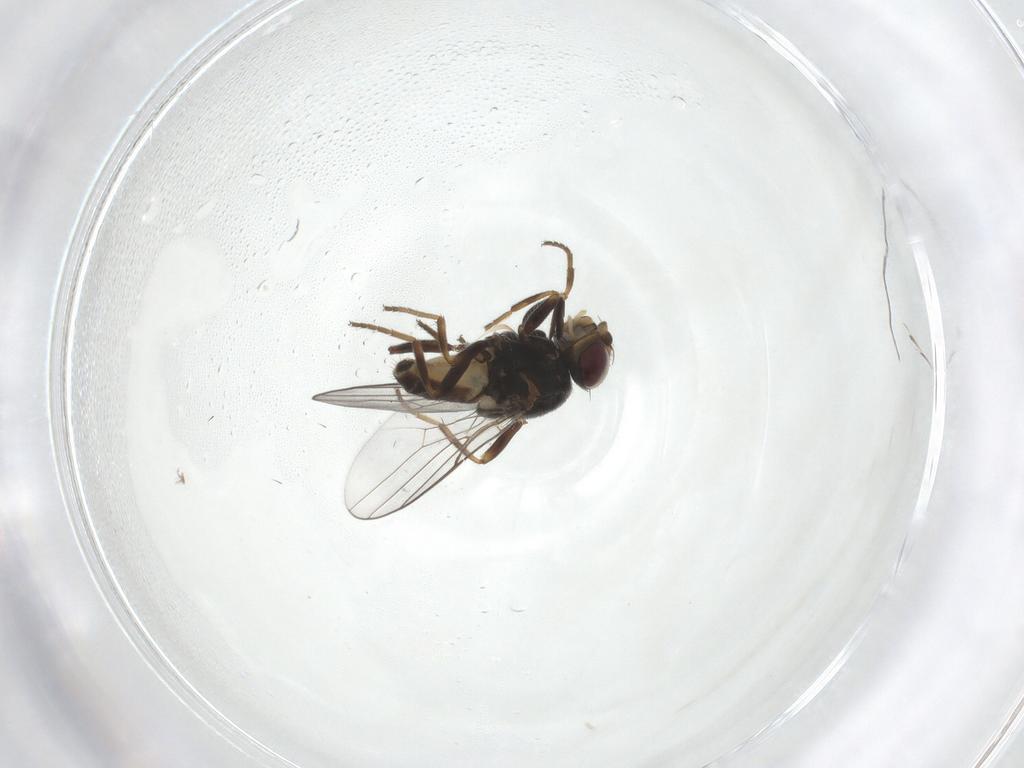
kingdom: Animalia
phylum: Arthropoda
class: Insecta
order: Diptera
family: Chloropidae
